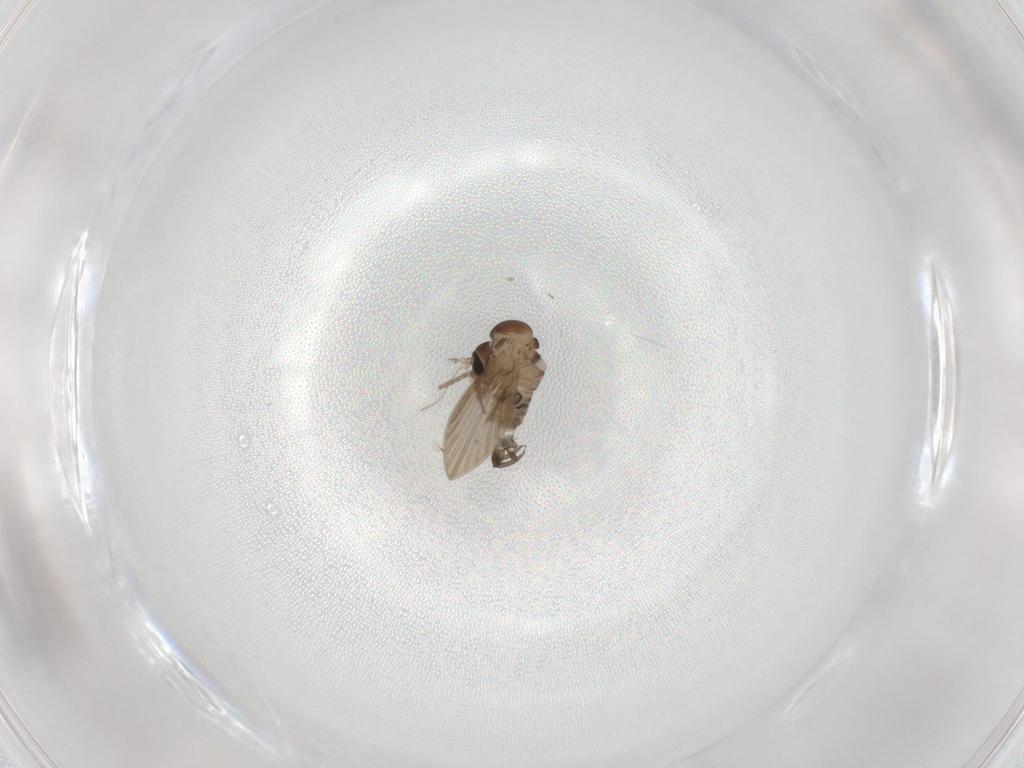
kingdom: Animalia
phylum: Arthropoda
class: Insecta
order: Diptera
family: Psychodidae
